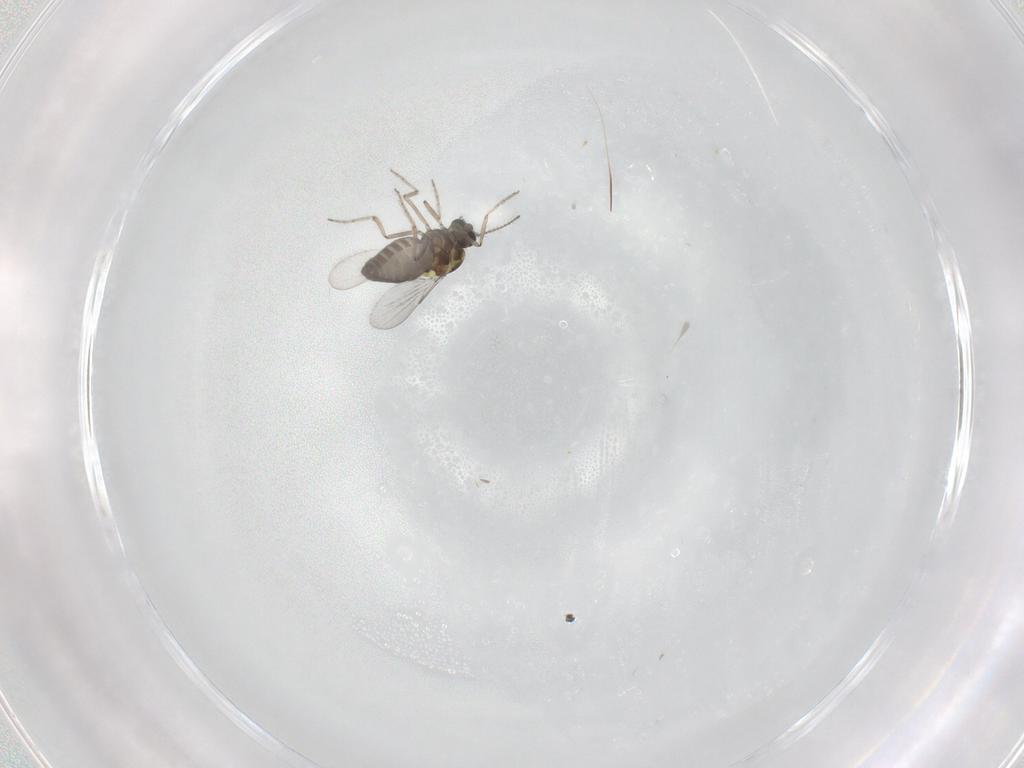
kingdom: Animalia
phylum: Arthropoda
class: Insecta
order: Diptera
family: Ceratopogonidae
